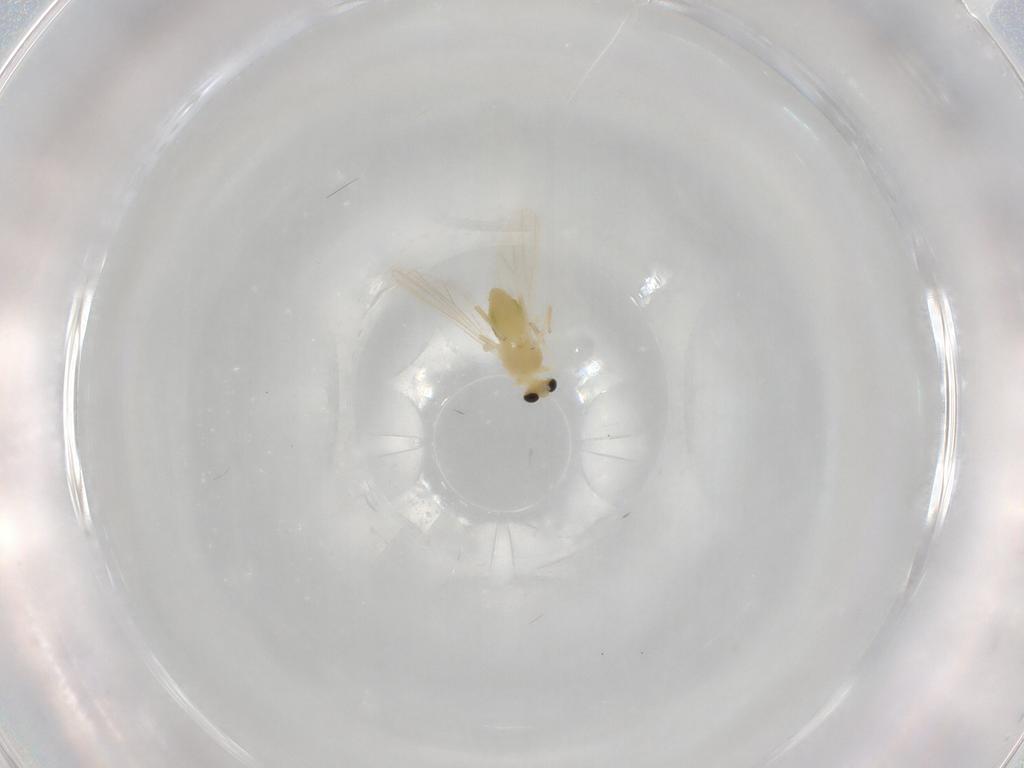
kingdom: Animalia
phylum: Arthropoda
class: Insecta
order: Diptera
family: Chironomidae
